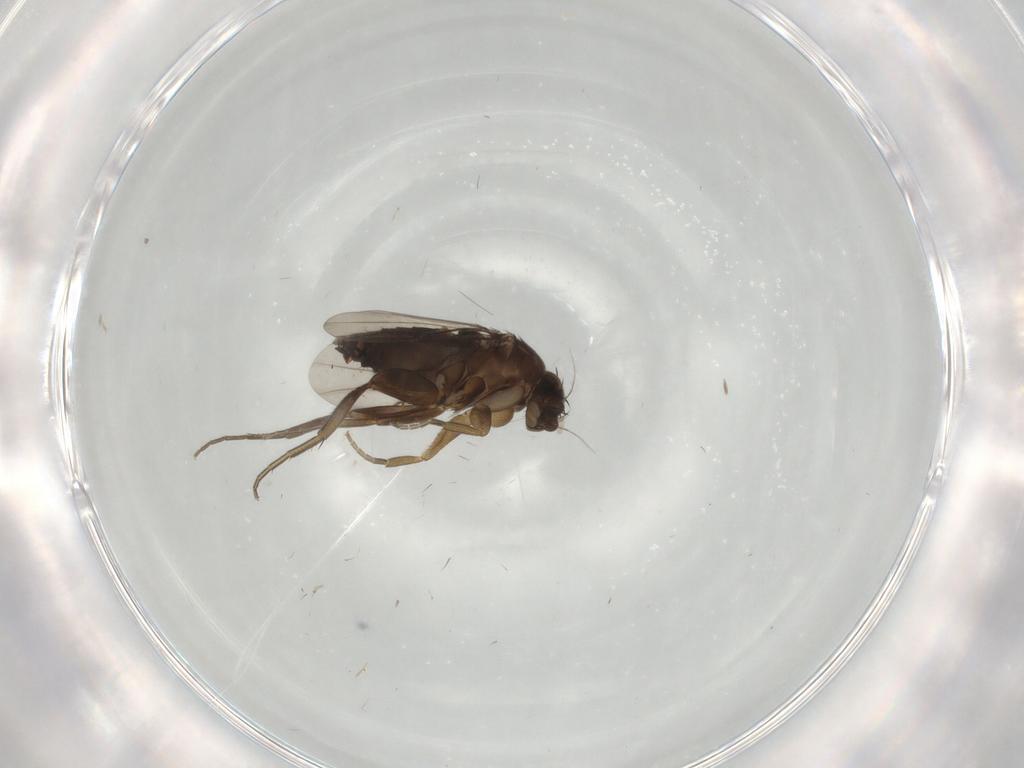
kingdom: Animalia
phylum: Arthropoda
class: Insecta
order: Diptera
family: Phoridae
